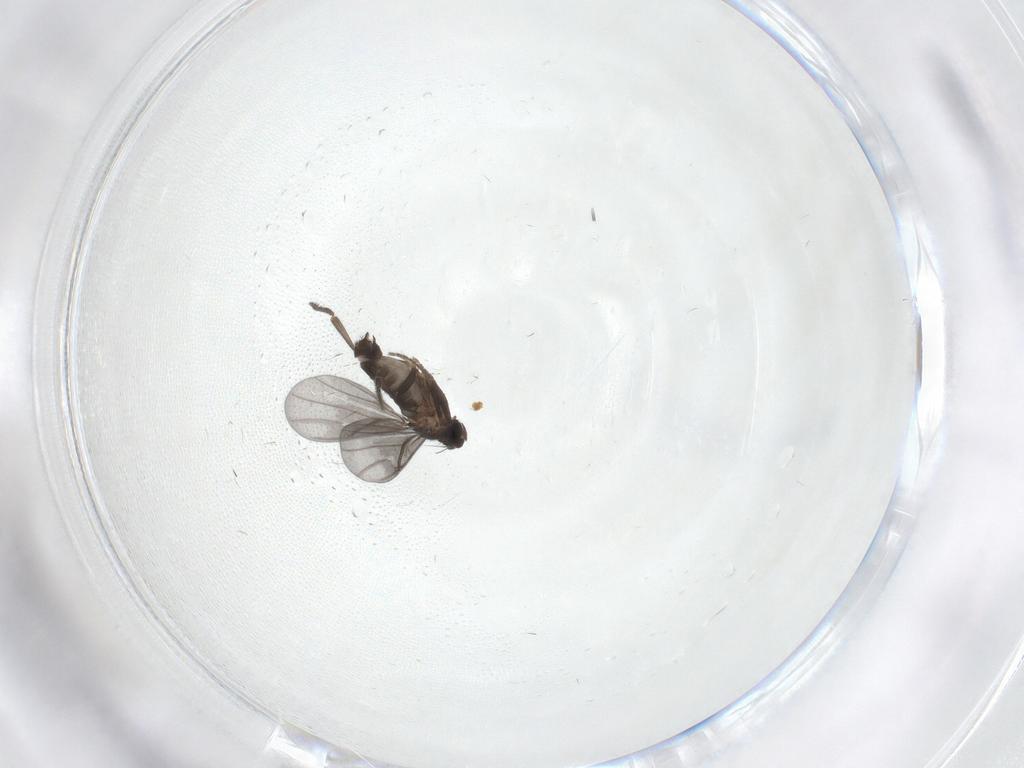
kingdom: Animalia
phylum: Arthropoda
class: Insecta
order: Diptera
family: Phoridae
